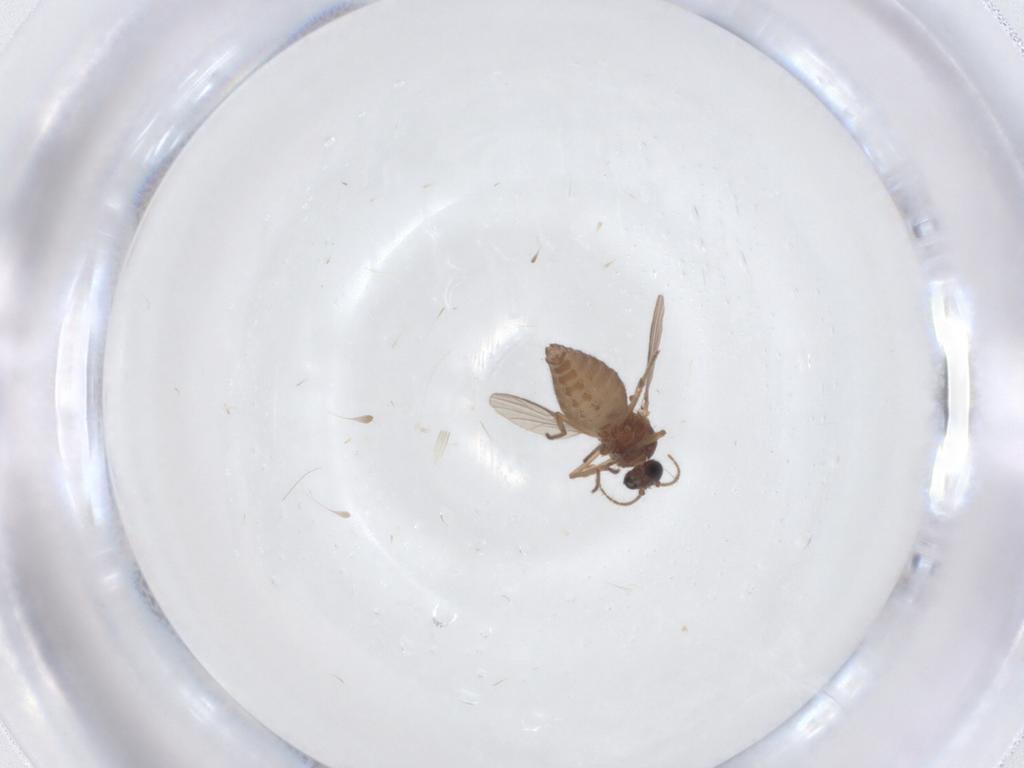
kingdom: Animalia
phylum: Arthropoda
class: Insecta
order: Diptera
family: Ceratopogonidae
